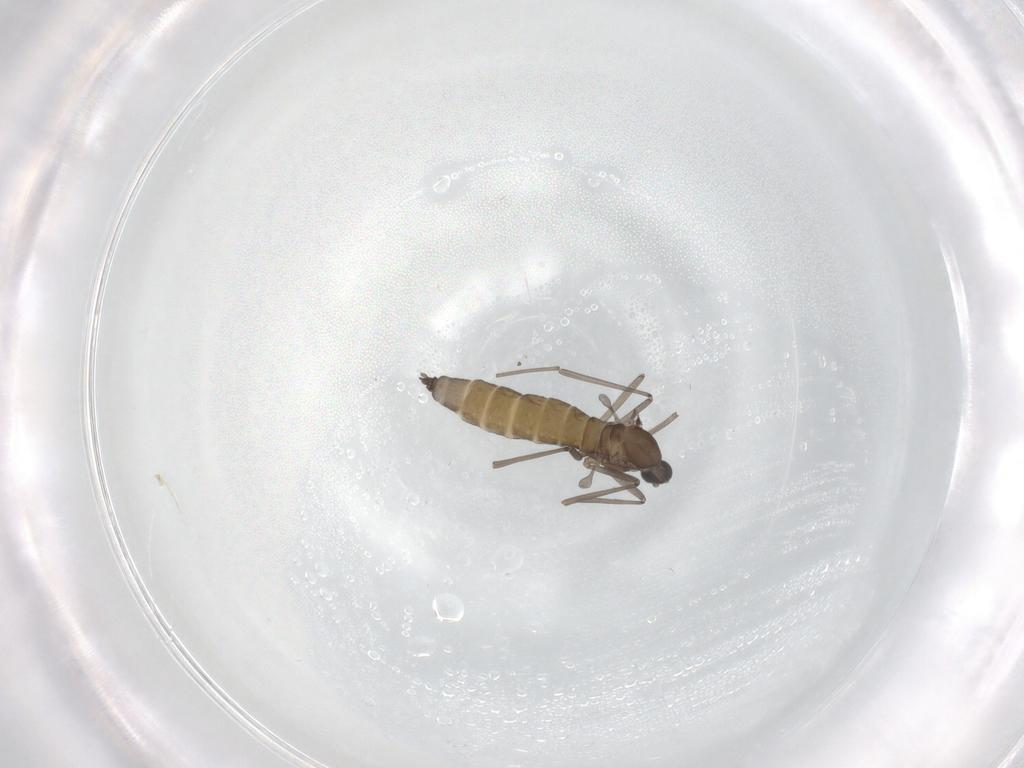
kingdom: Animalia
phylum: Arthropoda
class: Insecta
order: Diptera
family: Cecidomyiidae
